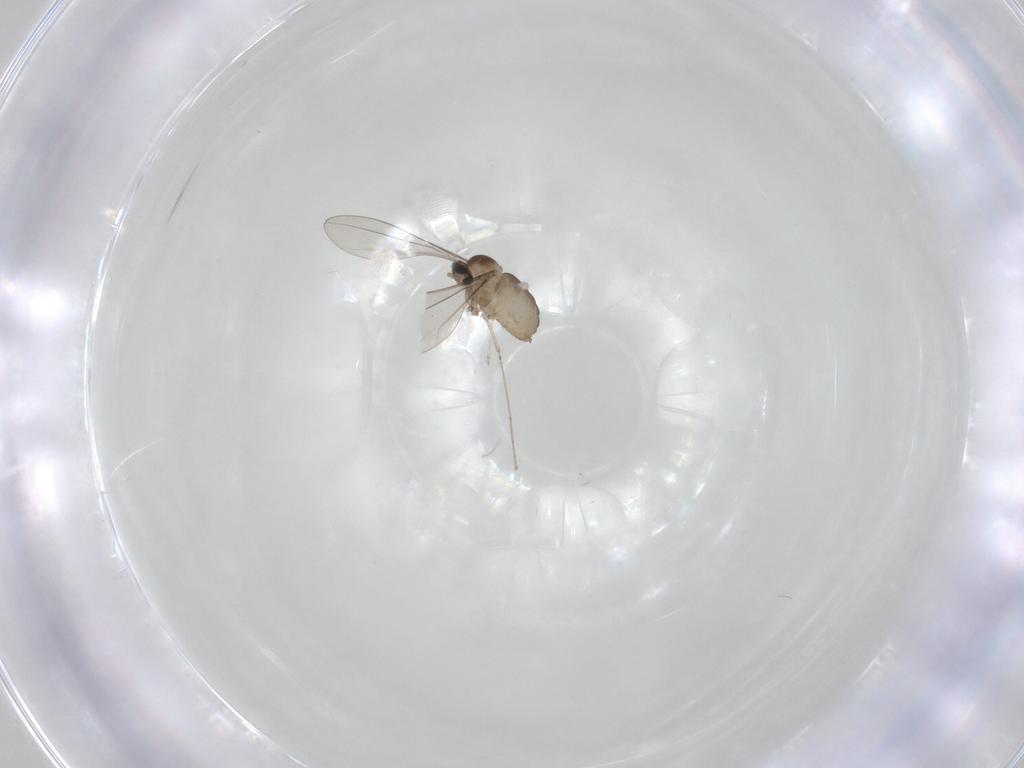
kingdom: Animalia
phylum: Arthropoda
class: Insecta
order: Diptera
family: Cecidomyiidae
